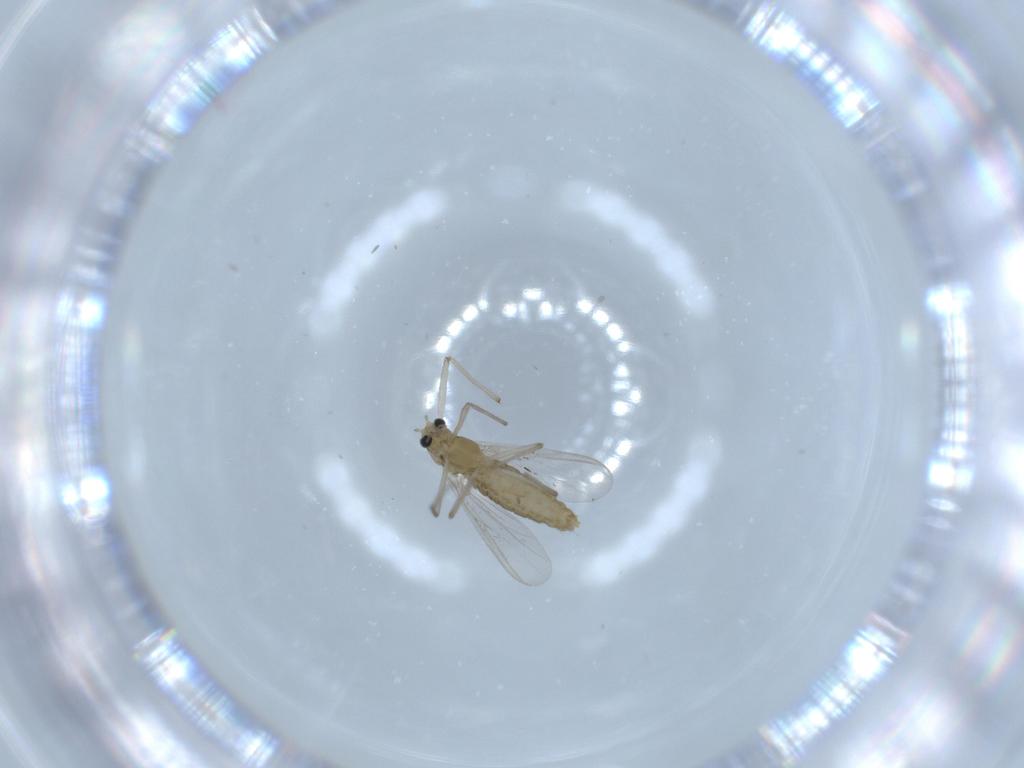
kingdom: Animalia
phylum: Arthropoda
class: Insecta
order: Diptera
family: Chironomidae
